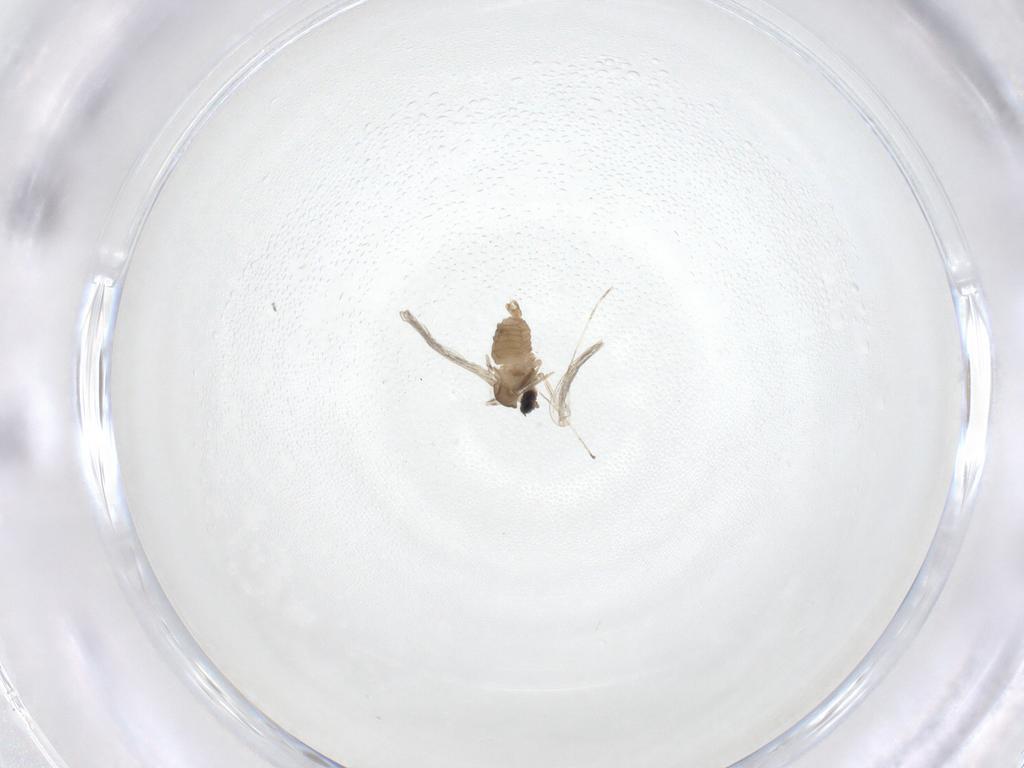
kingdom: Animalia
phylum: Arthropoda
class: Insecta
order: Diptera
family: Cecidomyiidae
